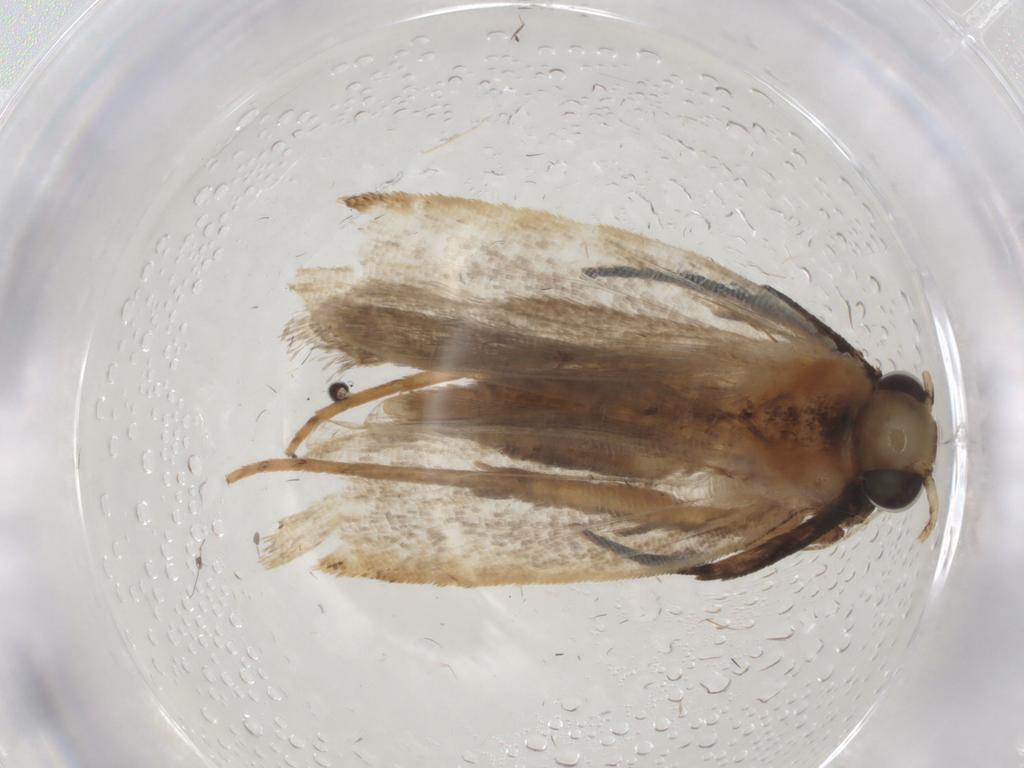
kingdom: Animalia
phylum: Arthropoda
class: Insecta
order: Lepidoptera
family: Gelechiidae
